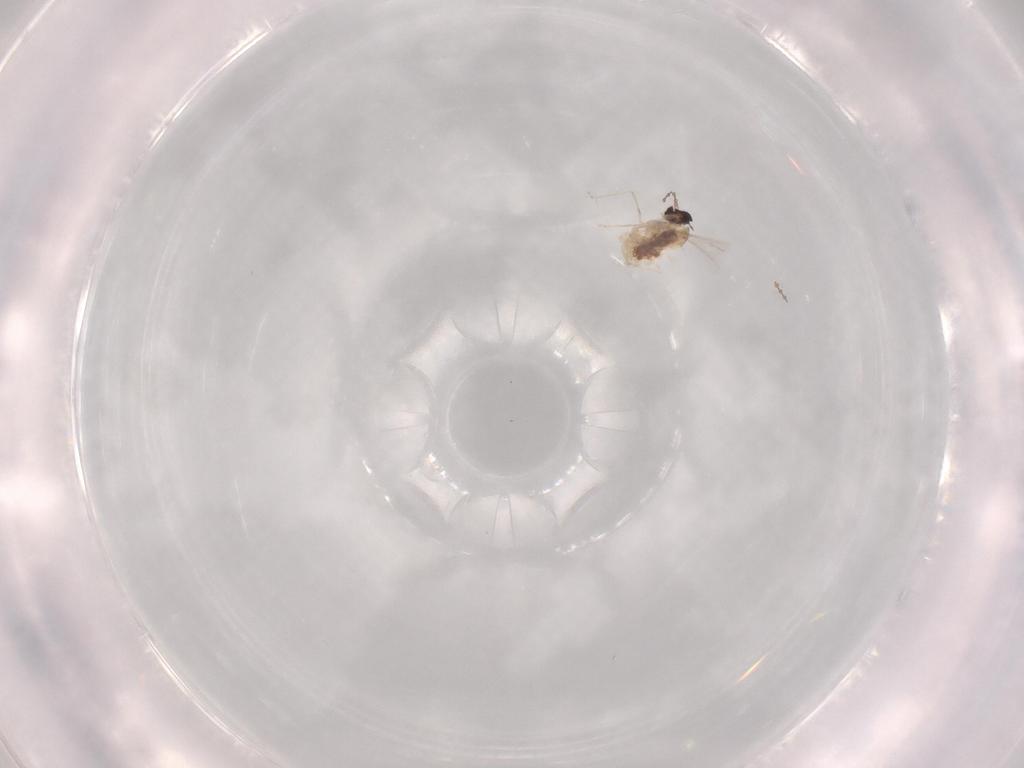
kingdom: Animalia
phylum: Arthropoda
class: Insecta
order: Diptera
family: Cecidomyiidae
